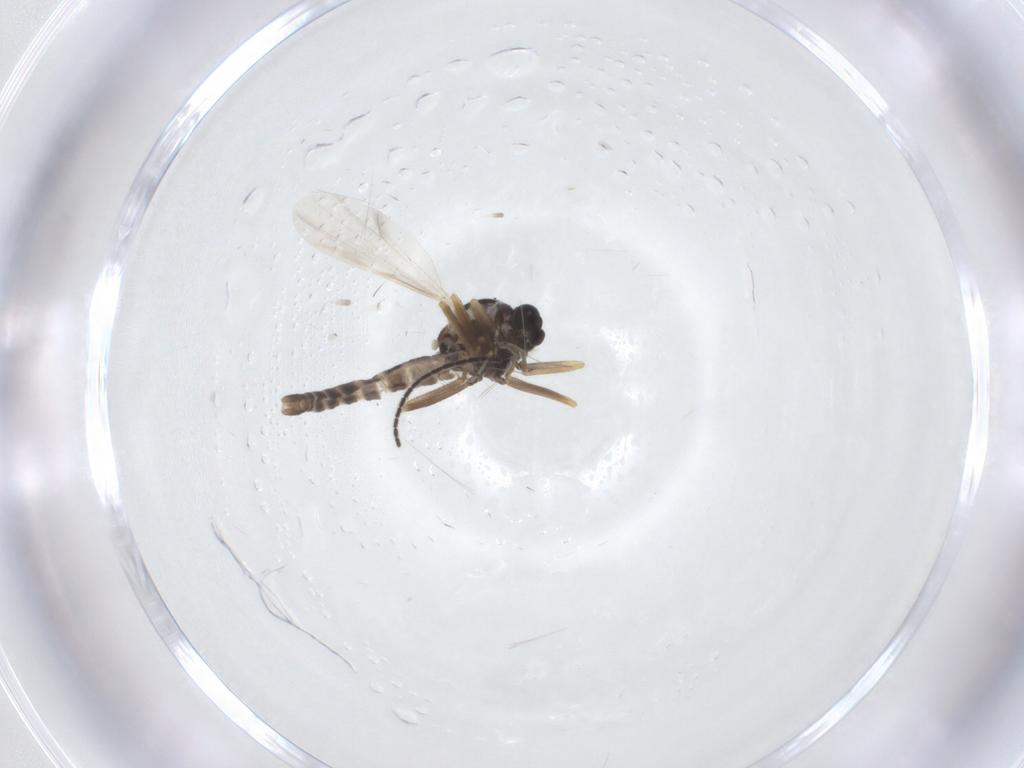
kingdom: Animalia
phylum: Arthropoda
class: Insecta
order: Diptera
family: Ceratopogonidae
